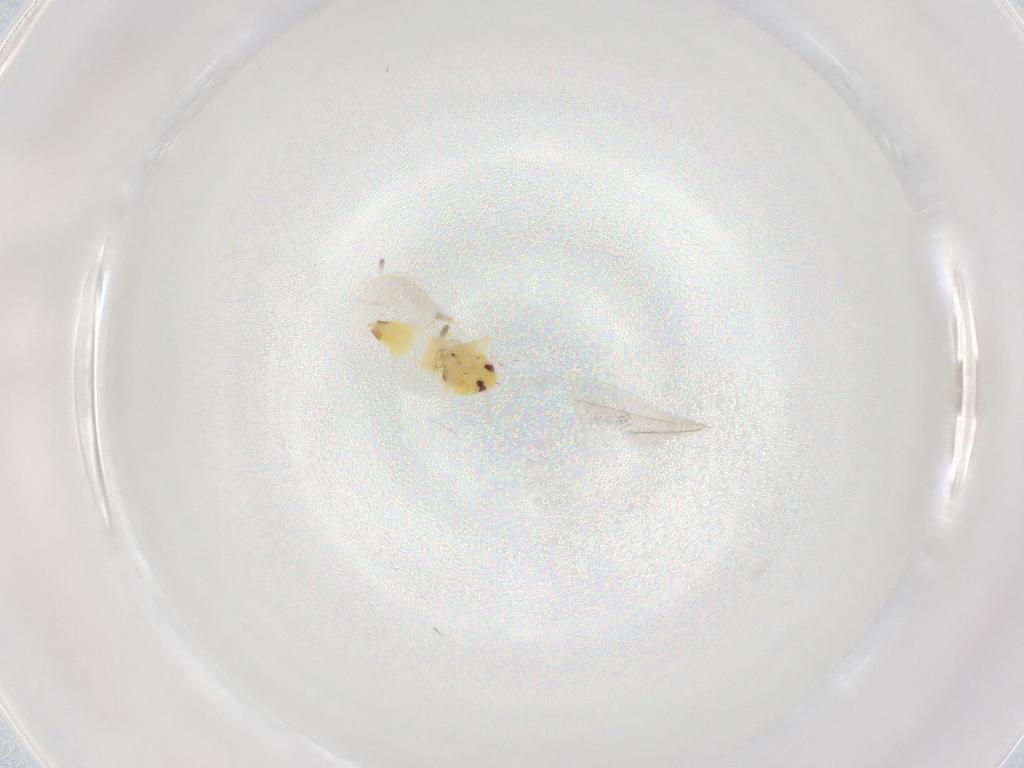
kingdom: Animalia
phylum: Arthropoda
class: Insecta
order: Hemiptera
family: Aleyrodidae
